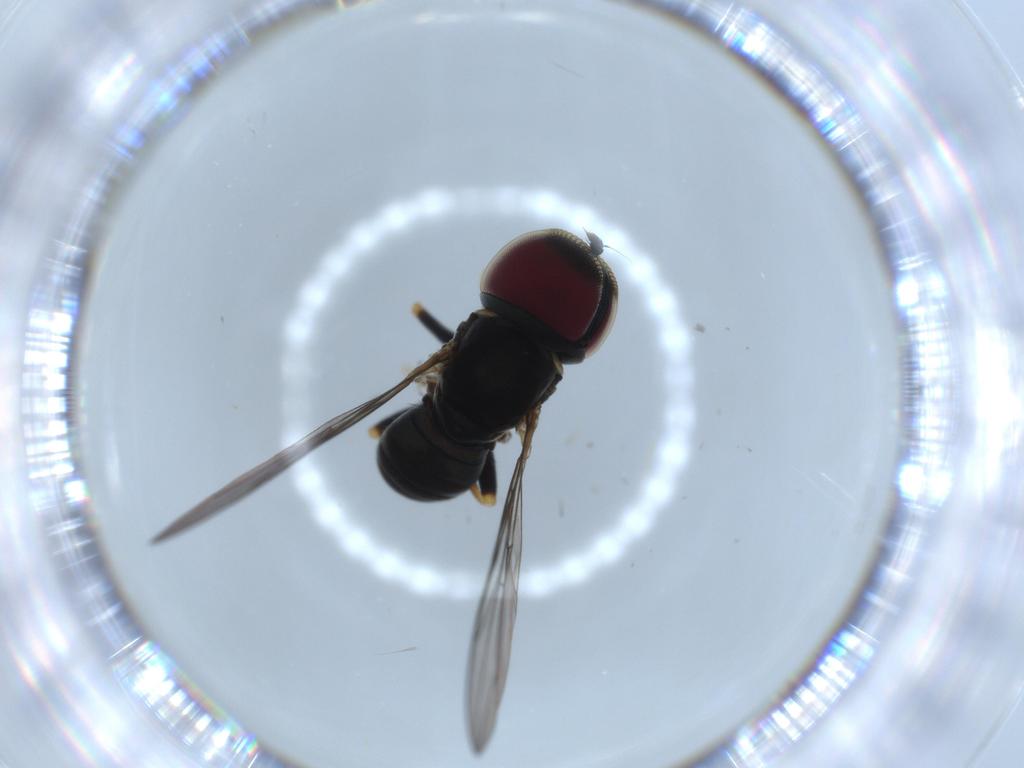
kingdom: Animalia
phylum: Arthropoda
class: Insecta
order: Diptera
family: Pipunculidae
